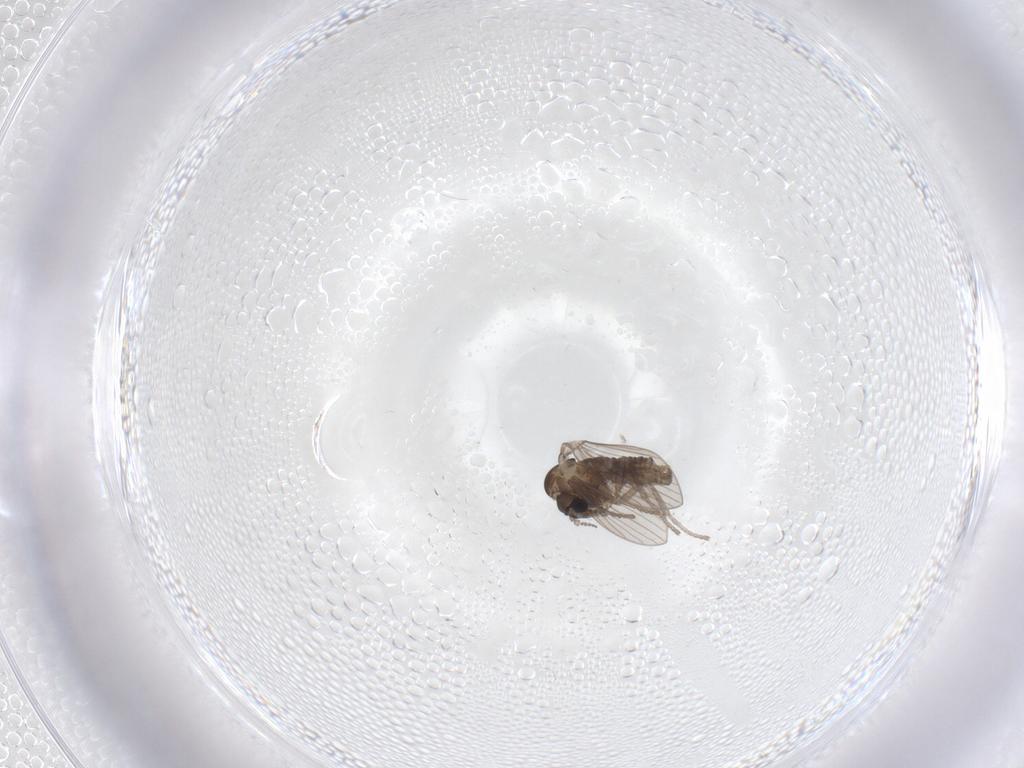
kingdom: Animalia
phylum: Arthropoda
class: Insecta
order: Diptera
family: Psychodidae
